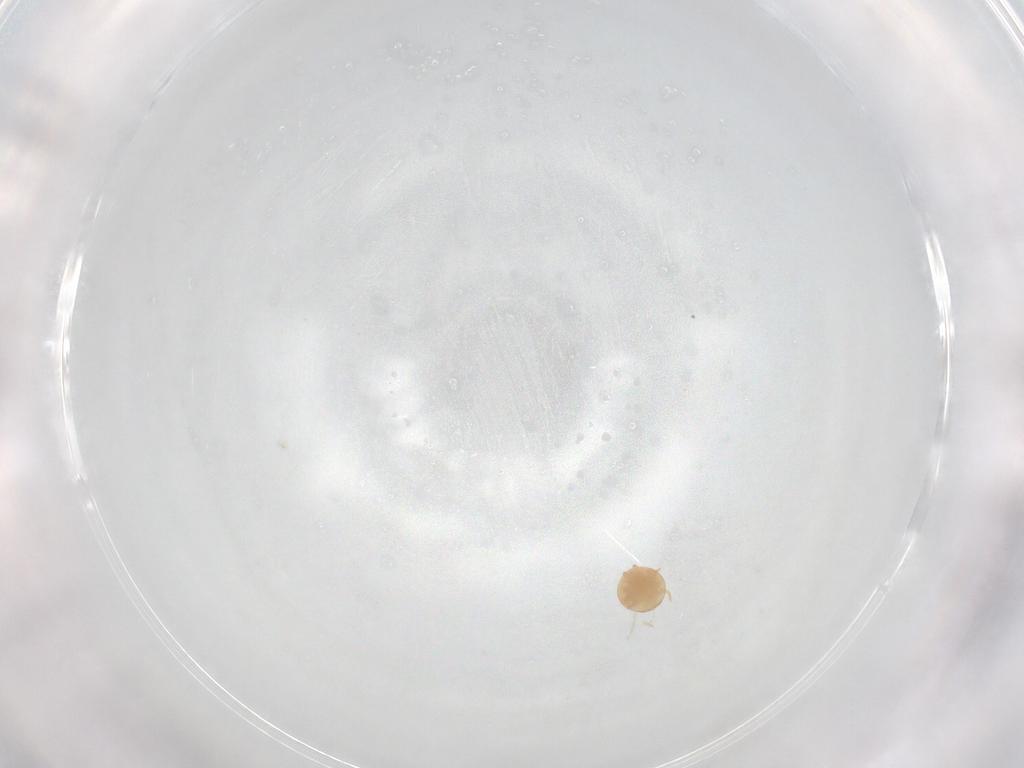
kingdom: Animalia
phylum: Arthropoda
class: Arachnida
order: Mesostigmata
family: Trematuridae
